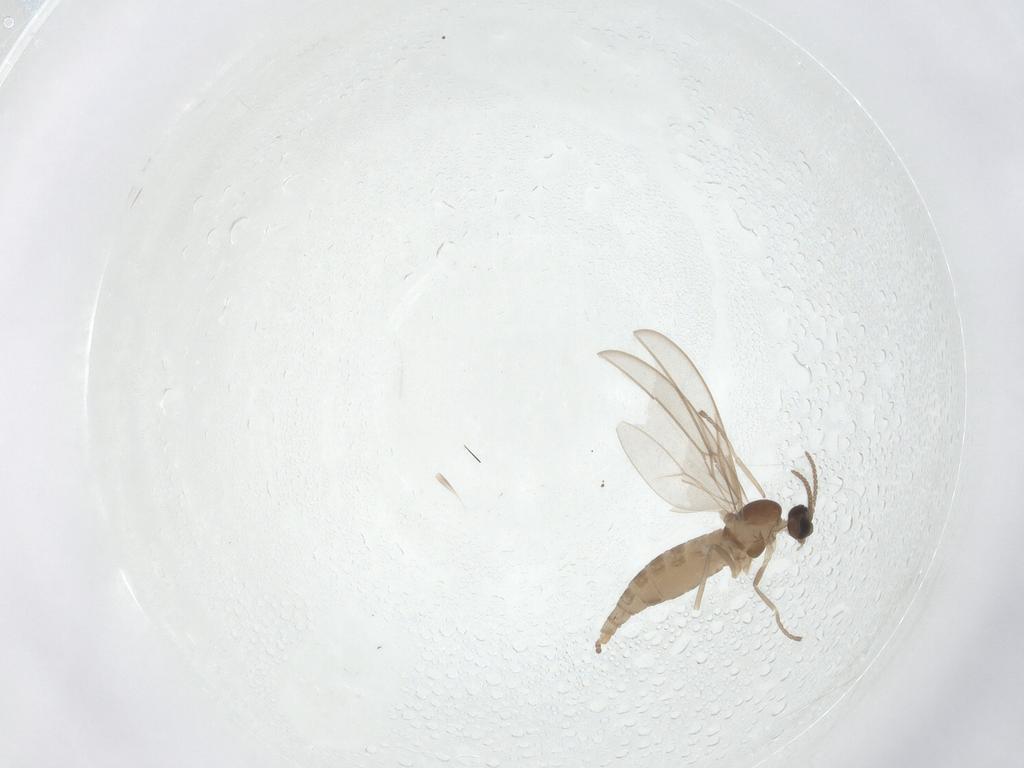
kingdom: Animalia
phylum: Arthropoda
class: Insecta
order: Diptera
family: Cecidomyiidae
